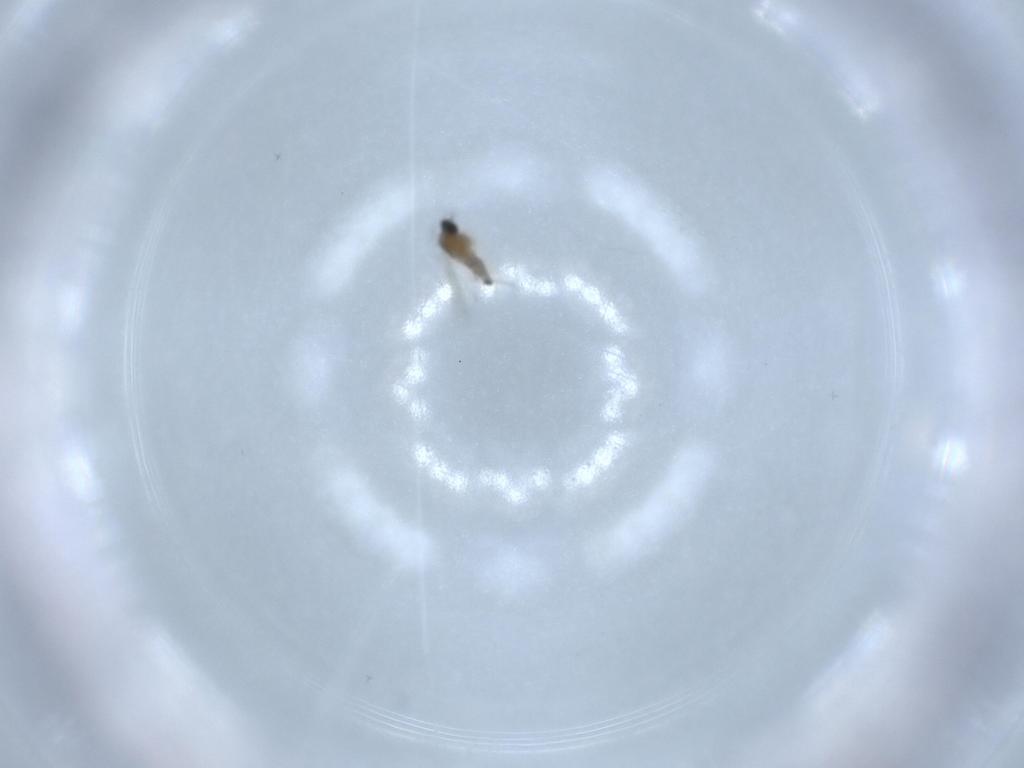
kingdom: Animalia
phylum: Arthropoda
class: Insecta
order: Diptera
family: Cecidomyiidae
